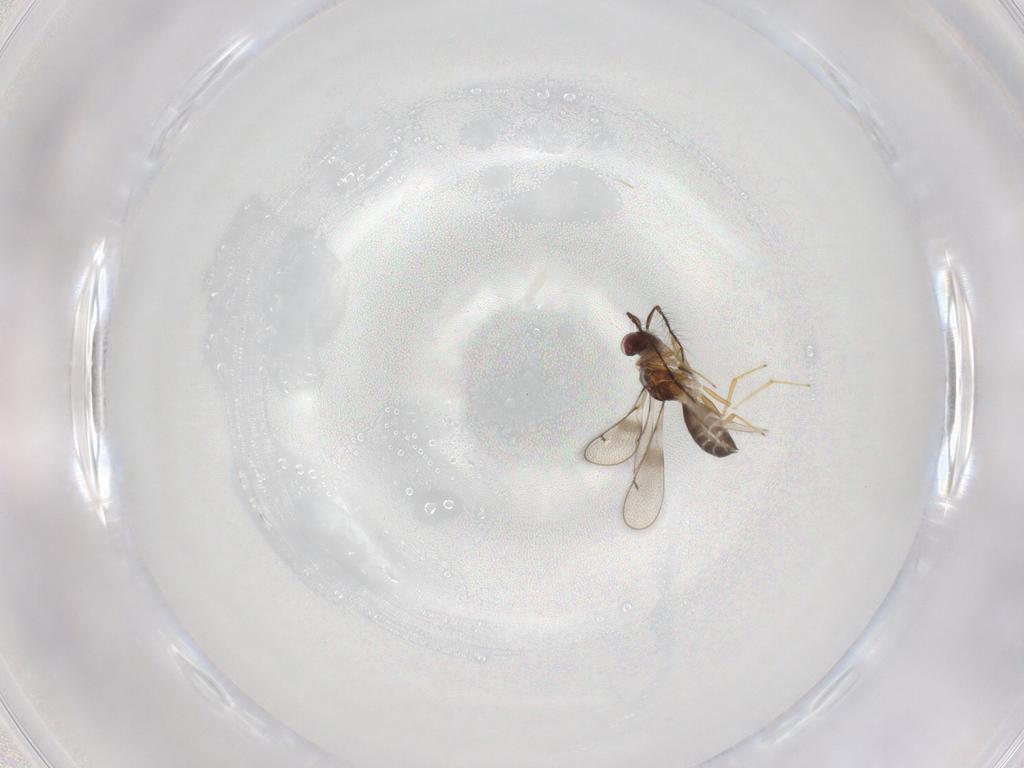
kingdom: Animalia
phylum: Arthropoda
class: Insecta
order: Hymenoptera
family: Eulophidae
